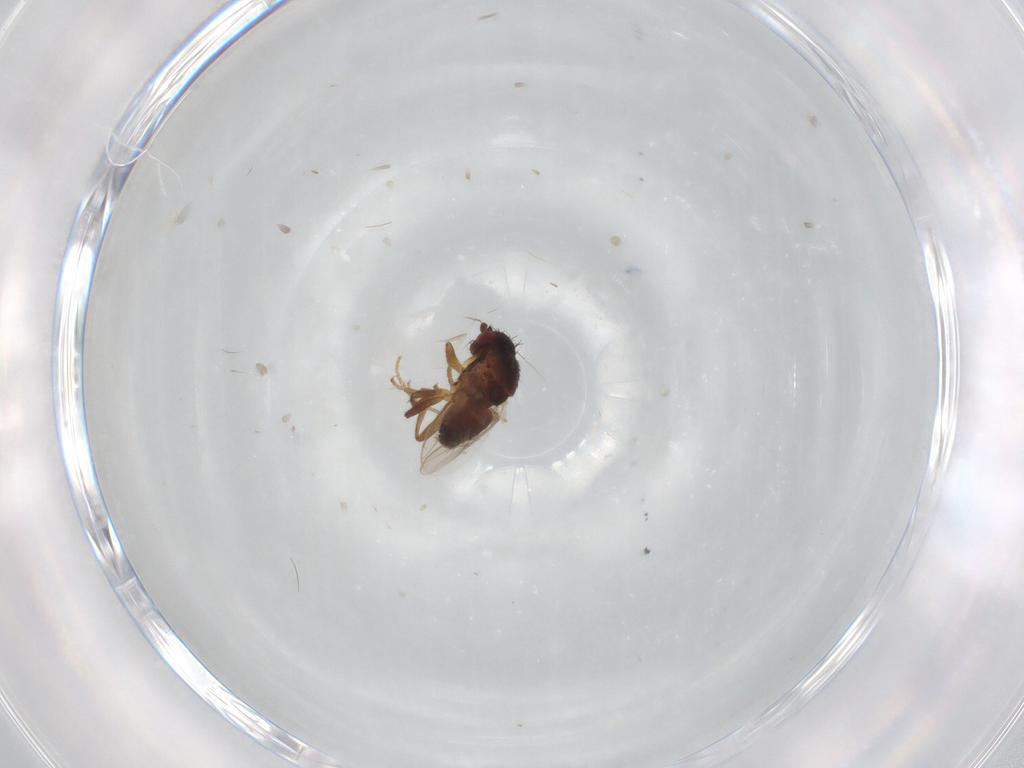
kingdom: Animalia
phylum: Arthropoda
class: Insecta
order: Diptera
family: Sphaeroceridae
